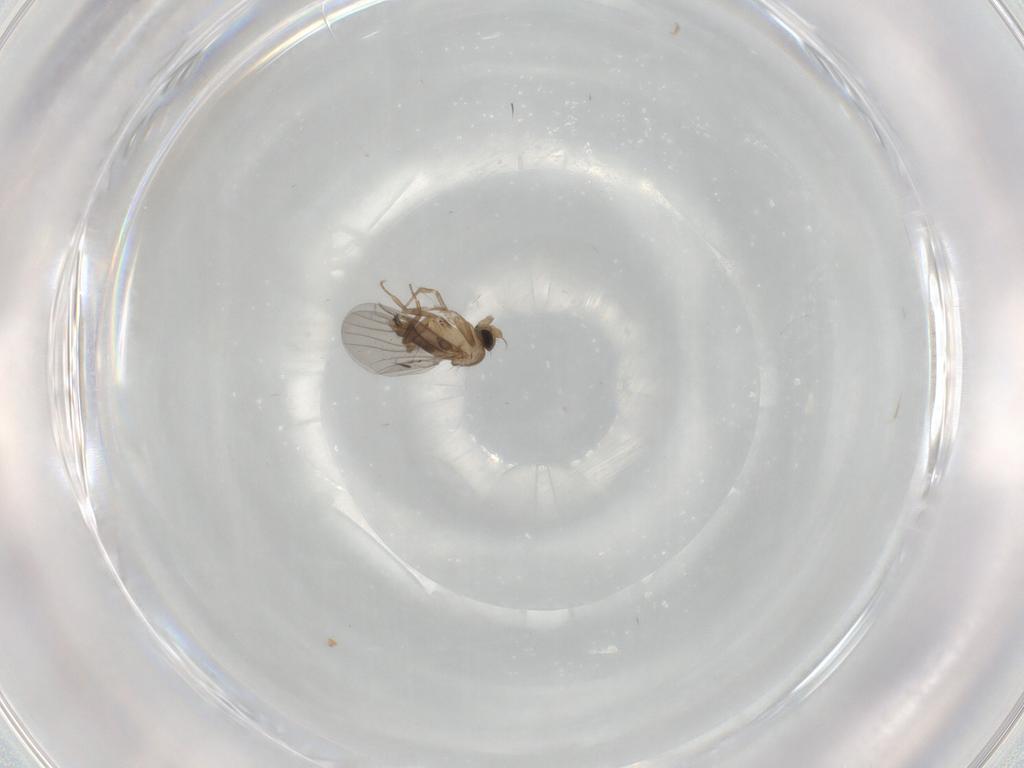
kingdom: Animalia
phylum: Arthropoda
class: Insecta
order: Diptera
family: Cecidomyiidae
